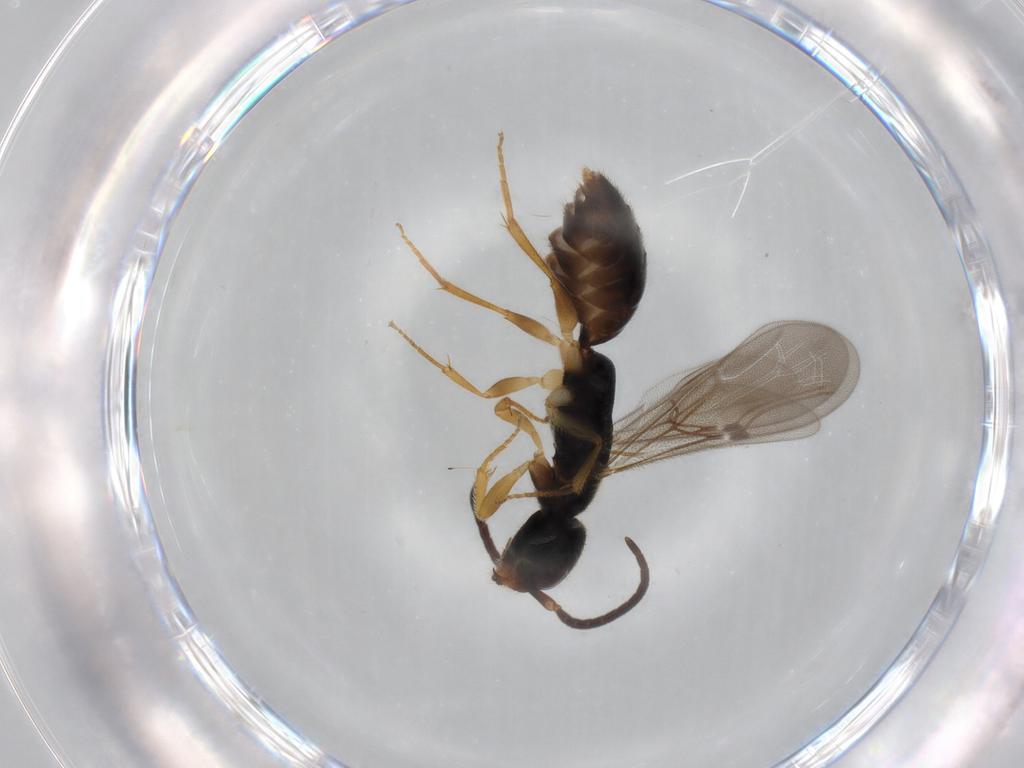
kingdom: Animalia
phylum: Arthropoda
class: Insecta
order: Hymenoptera
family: Bethylidae
